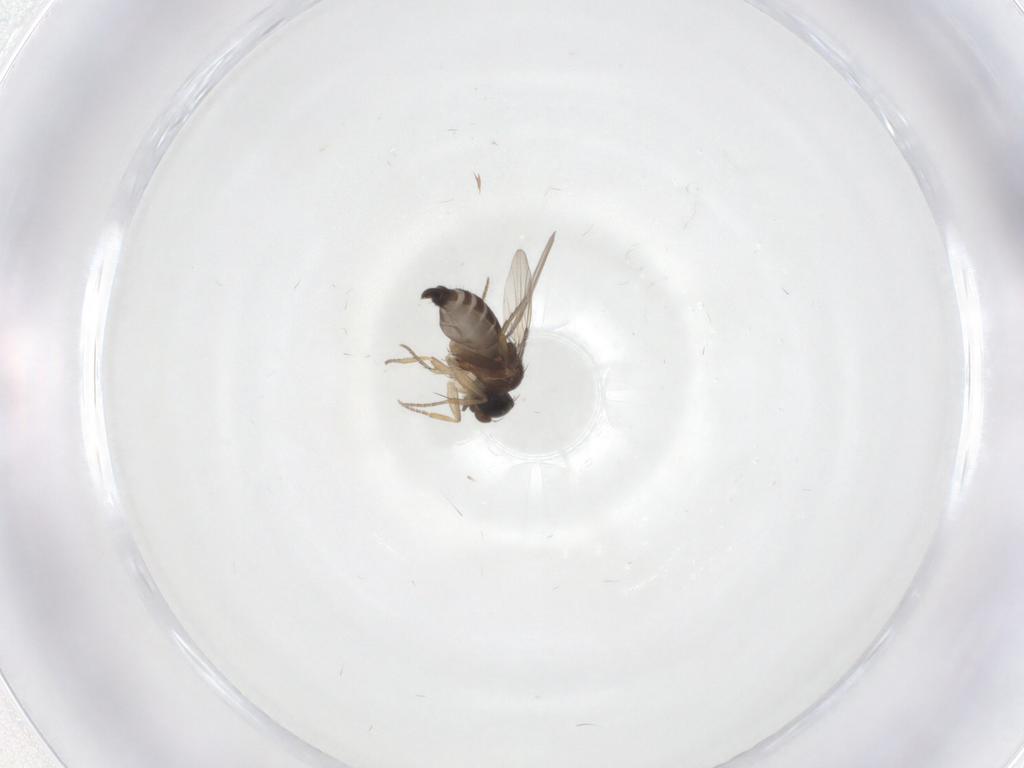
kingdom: Animalia
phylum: Arthropoda
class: Insecta
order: Diptera
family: Phoridae
